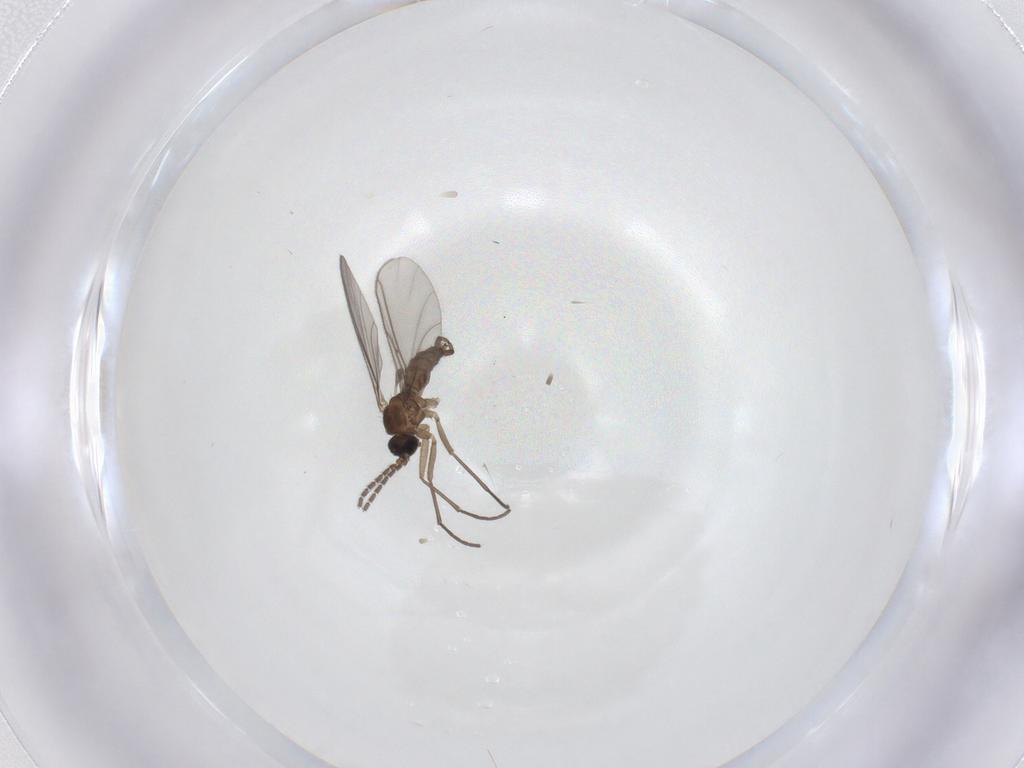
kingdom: Animalia
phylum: Arthropoda
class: Insecta
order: Diptera
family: Sciaridae
